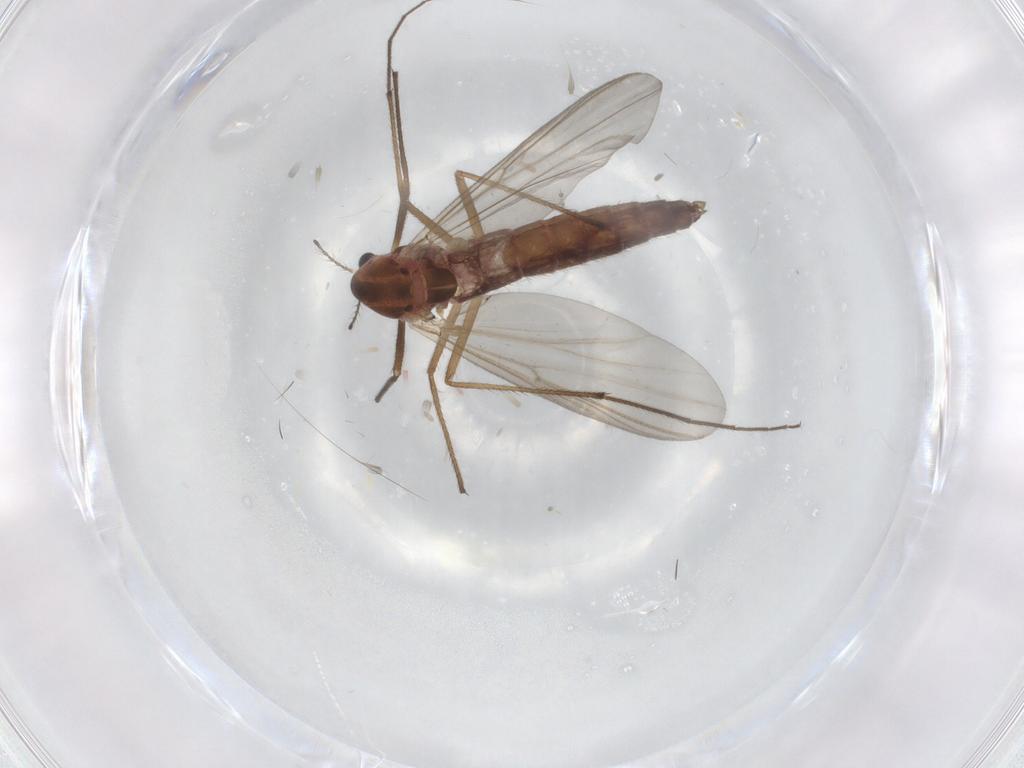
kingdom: Animalia
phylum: Arthropoda
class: Insecta
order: Diptera
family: Chironomidae
